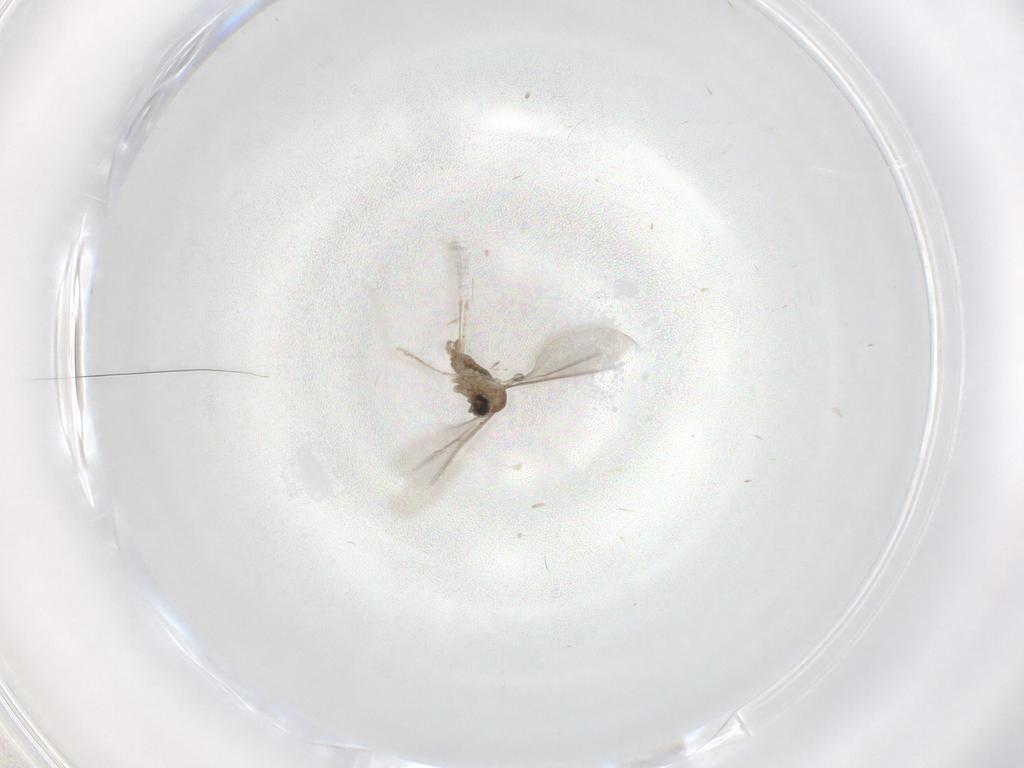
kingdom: Animalia
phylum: Arthropoda
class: Insecta
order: Diptera
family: Cecidomyiidae
